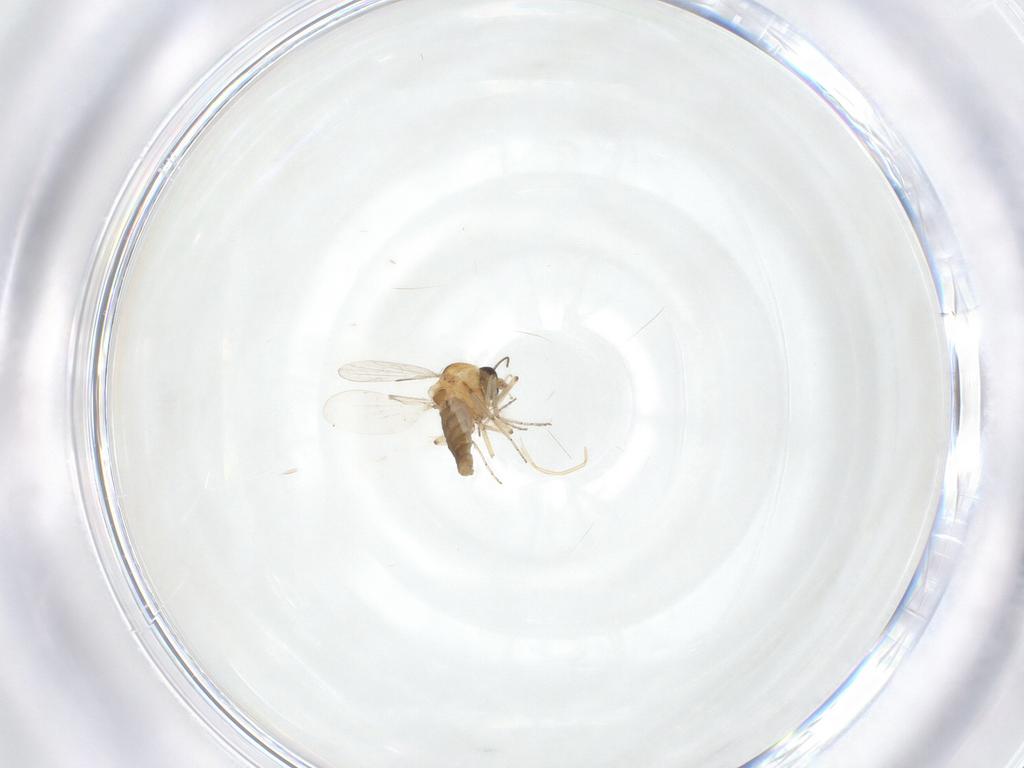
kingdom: Animalia
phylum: Arthropoda
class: Insecta
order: Diptera
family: Ceratopogonidae
